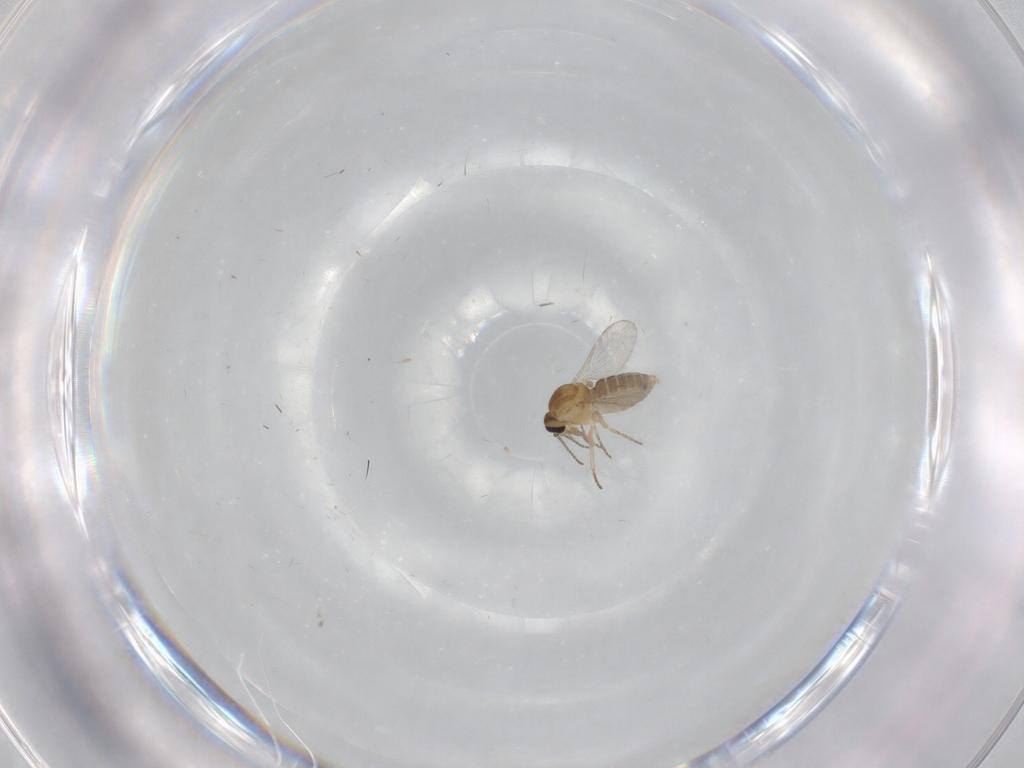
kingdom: Animalia
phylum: Arthropoda
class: Insecta
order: Diptera
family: Ceratopogonidae
